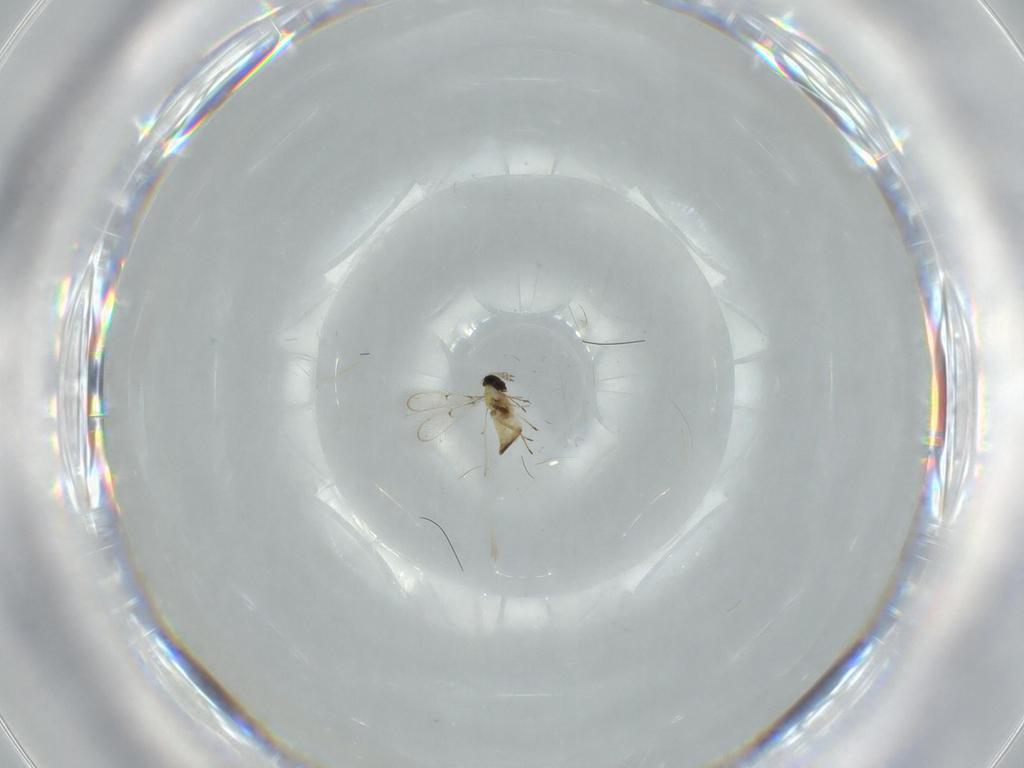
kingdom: Animalia
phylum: Arthropoda
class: Insecta
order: Hymenoptera
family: Trichogrammatidae
